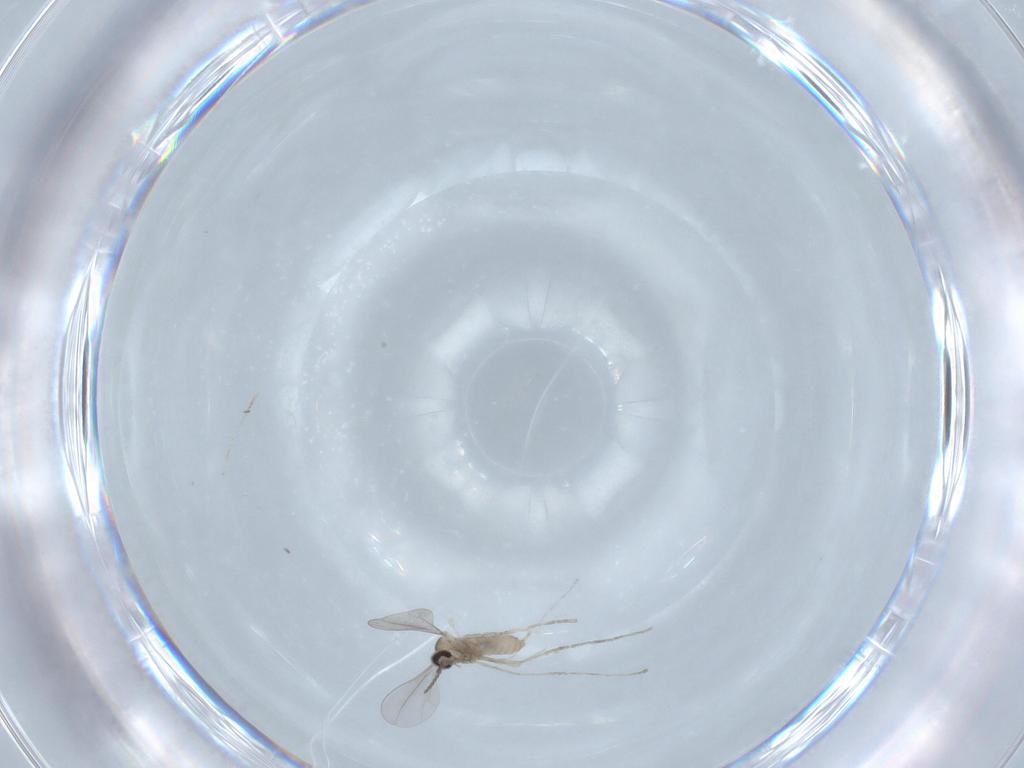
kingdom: Animalia
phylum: Arthropoda
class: Insecta
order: Diptera
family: Cecidomyiidae
